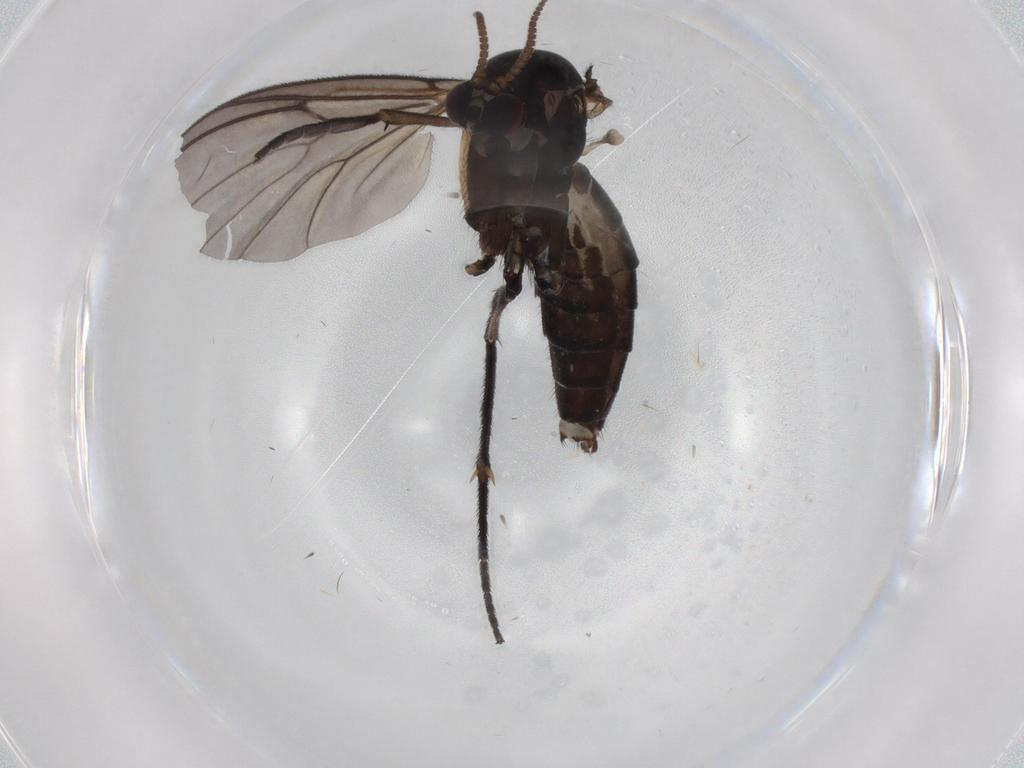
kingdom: Animalia
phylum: Arthropoda
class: Insecta
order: Diptera
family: Mycetophilidae
